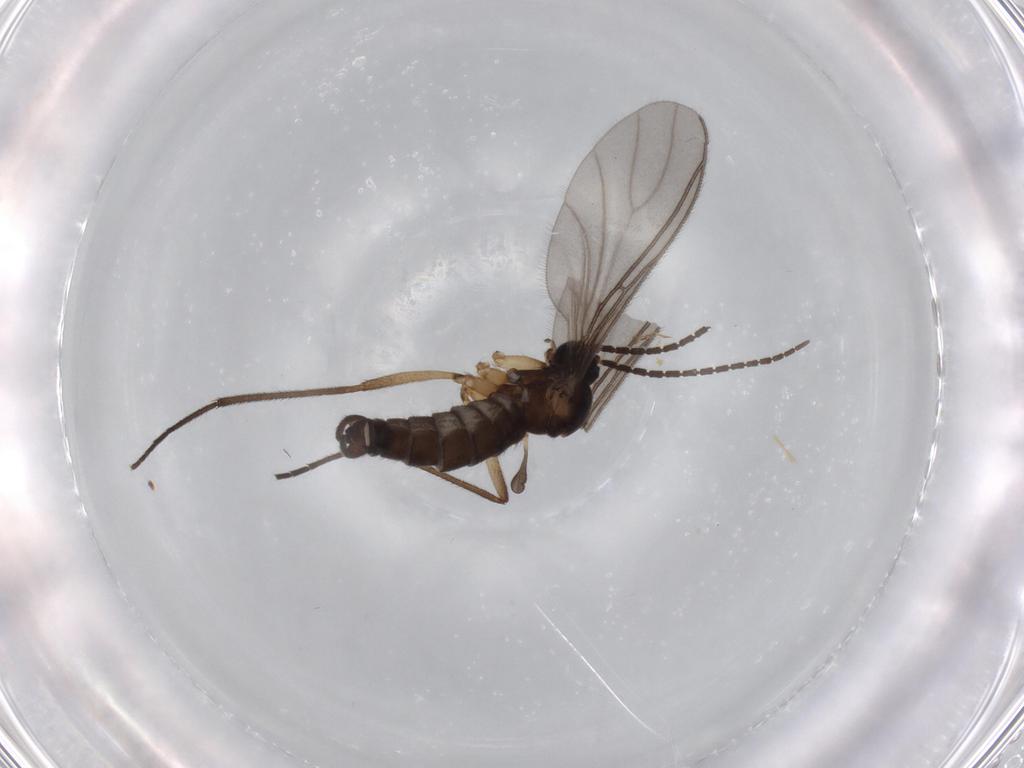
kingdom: Animalia
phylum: Arthropoda
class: Insecta
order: Diptera
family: Sciaridae
